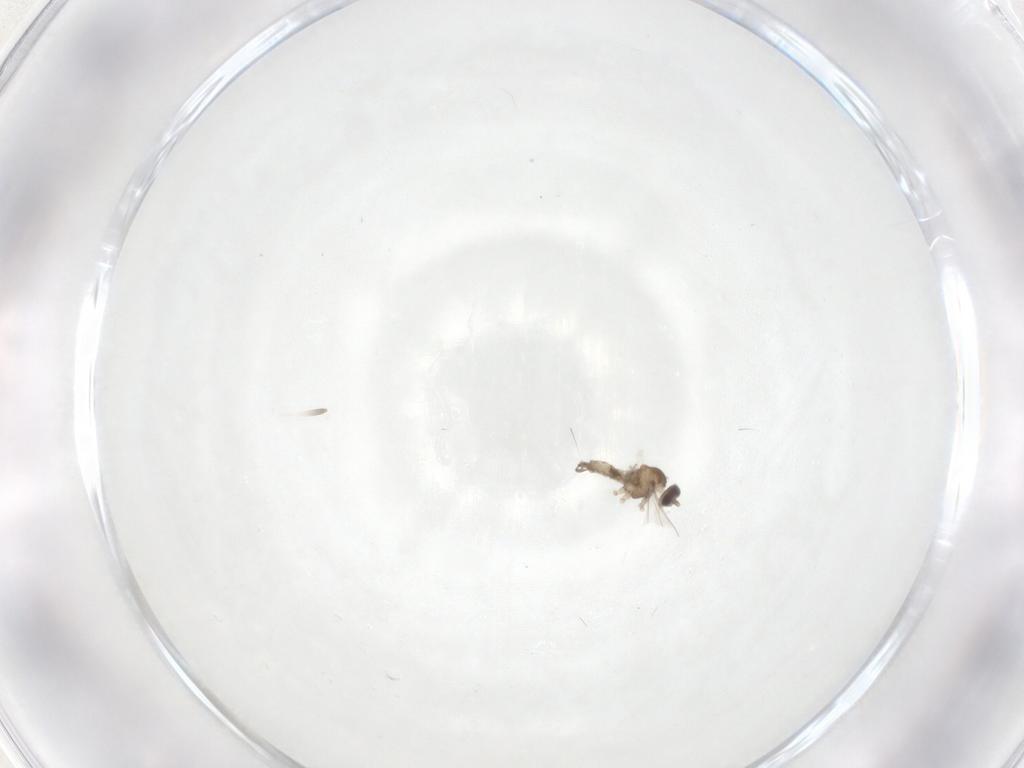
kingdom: Animalia
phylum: Arthropoda
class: Insecta
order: Diptera
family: Cecidomyiidae
